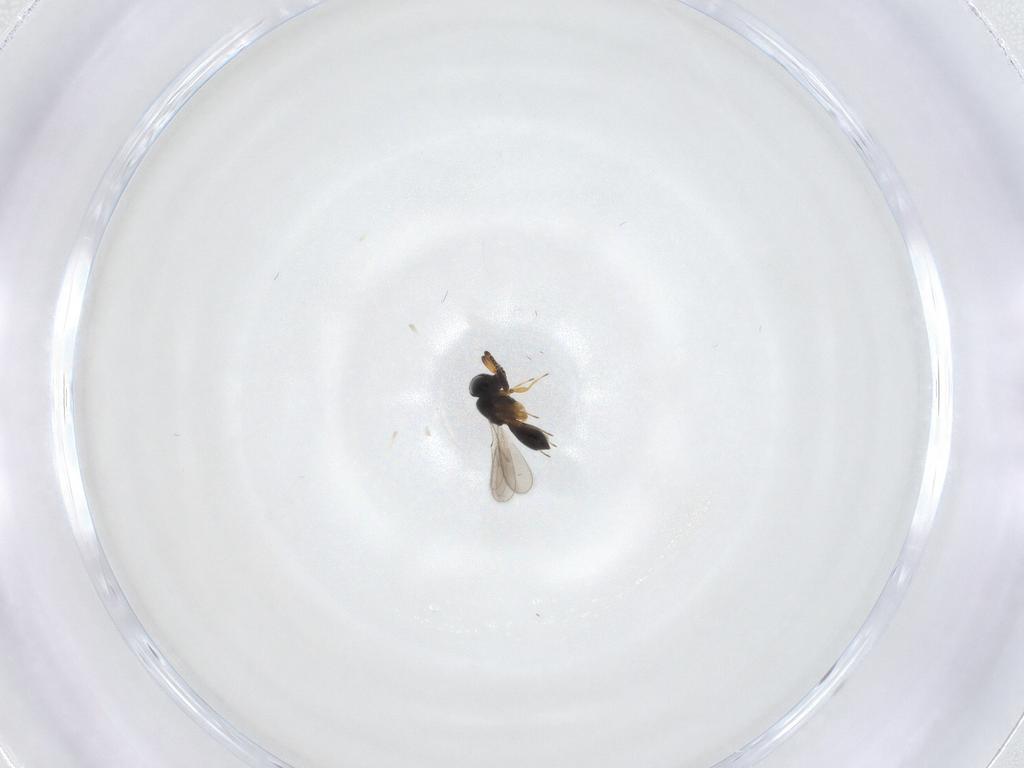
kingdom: Animalia
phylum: Arthropoda
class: Insecta
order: Hymenoptera
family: Scelionidae
